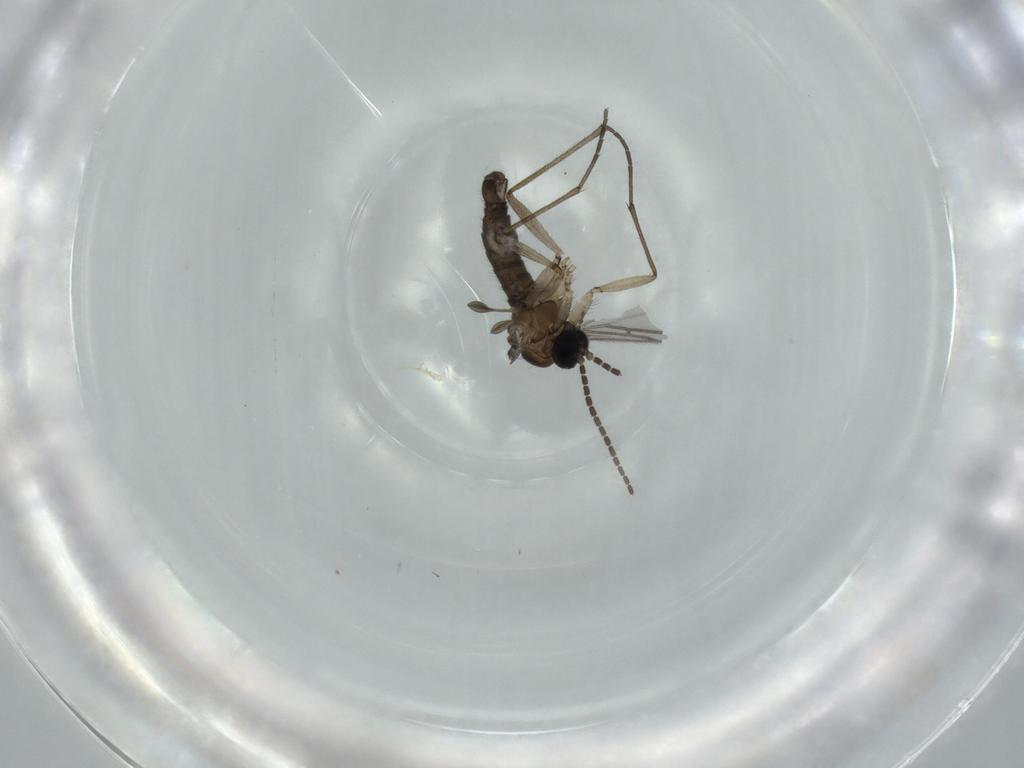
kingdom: Animalia
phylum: Arthropoda
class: Insecta
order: Diptera
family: Sciaridae
